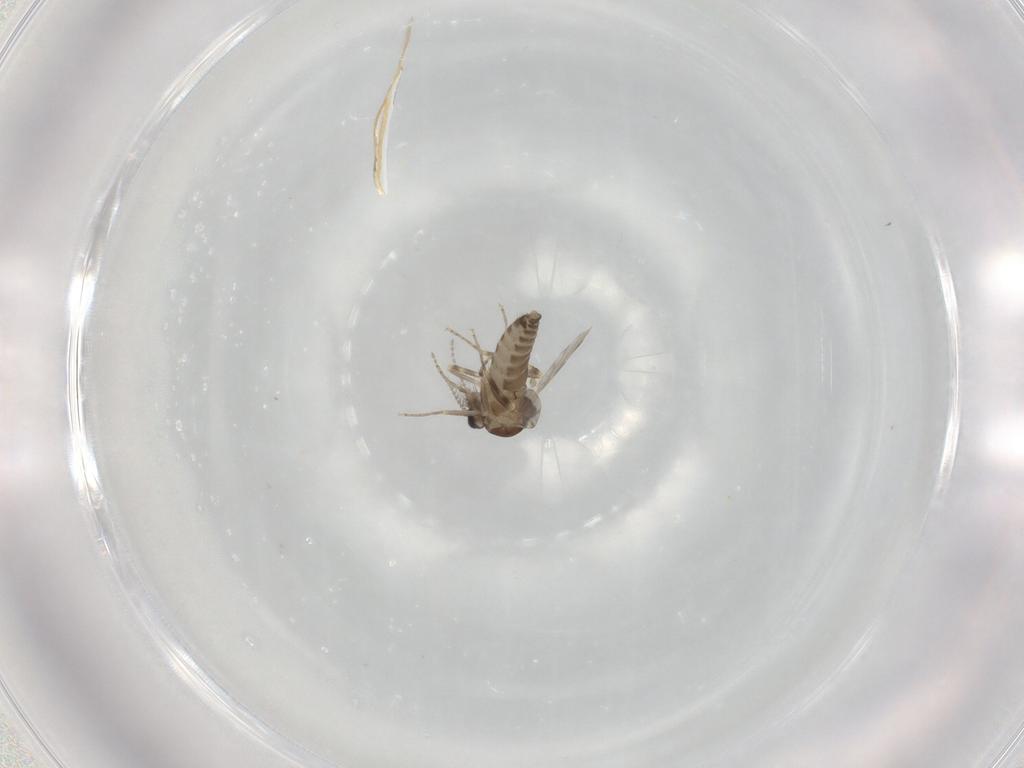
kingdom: Animalia
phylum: Arthropoda
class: Insecta
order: Diptera
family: Ceratopogonidae
